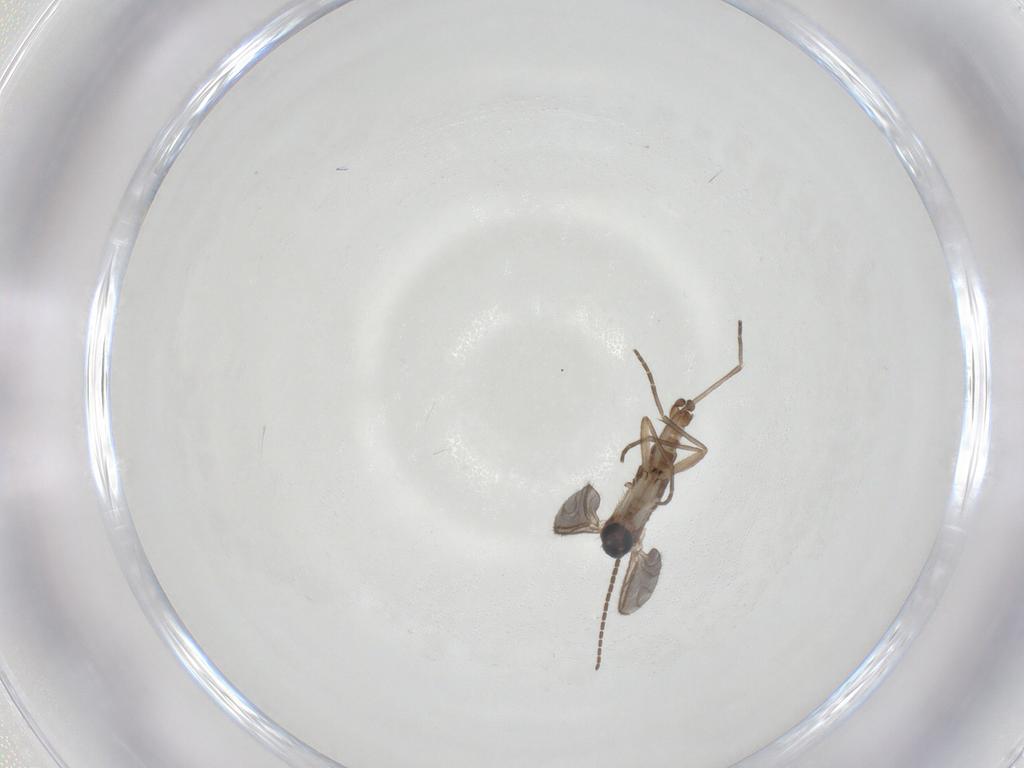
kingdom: Animalia
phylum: Arthropoda
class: Insecta
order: Diptera
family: Sciaridae
